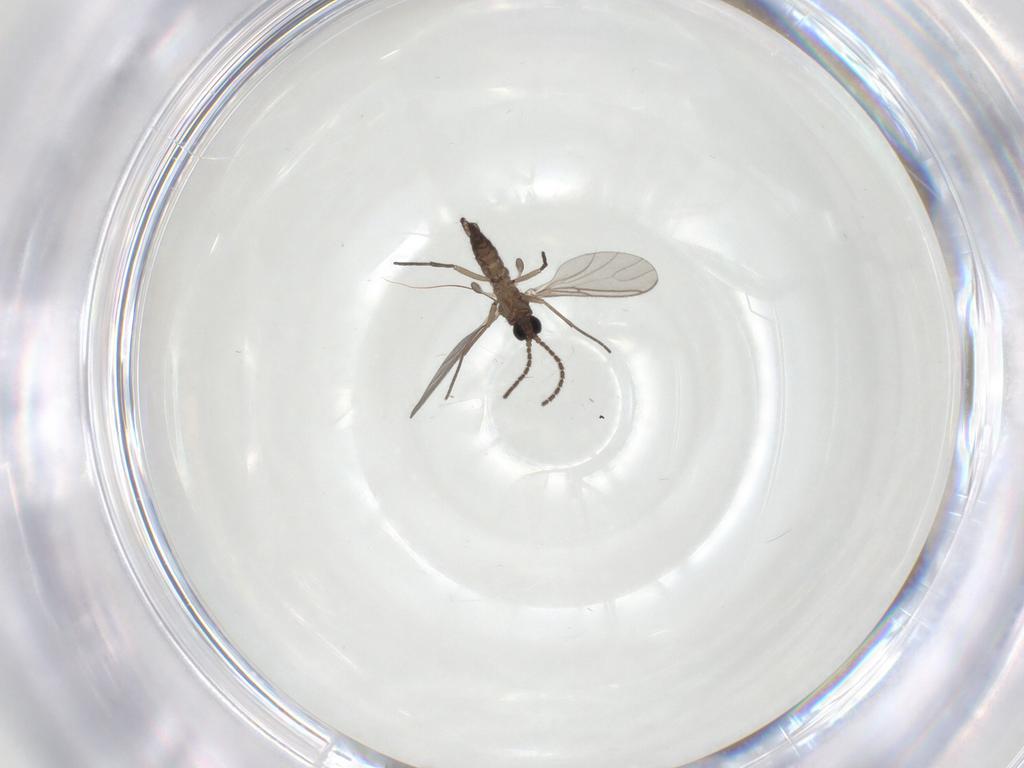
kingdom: Animalia
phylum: Arthropoda
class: Insecta
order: Diptera
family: Sciaridae
